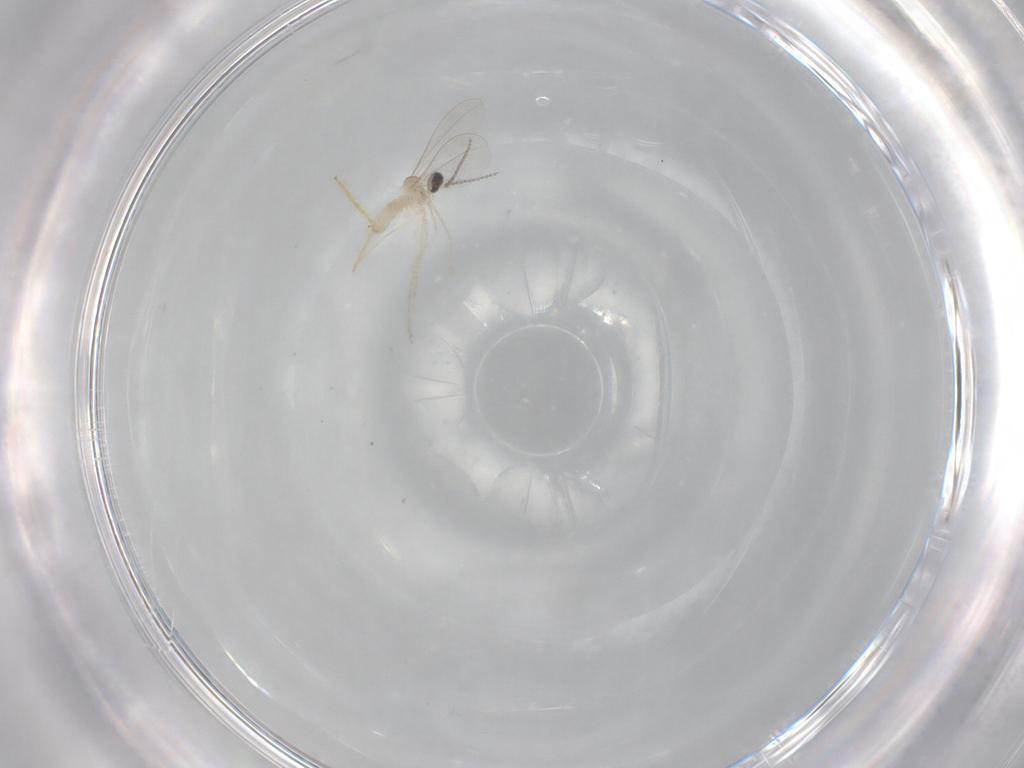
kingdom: Animalia
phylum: Arthropoda
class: Insecta
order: Diptera
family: Chironomidae
